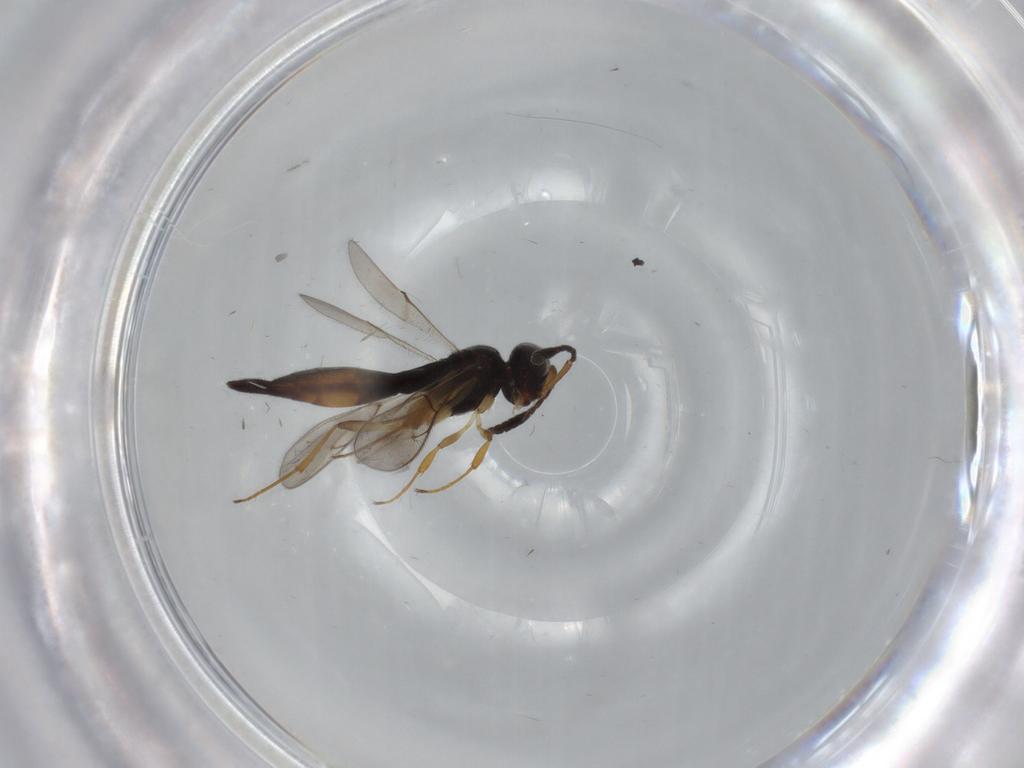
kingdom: Animalia
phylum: Arthropoda
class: Insecta
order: Hymenoptera
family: Scelionidae
